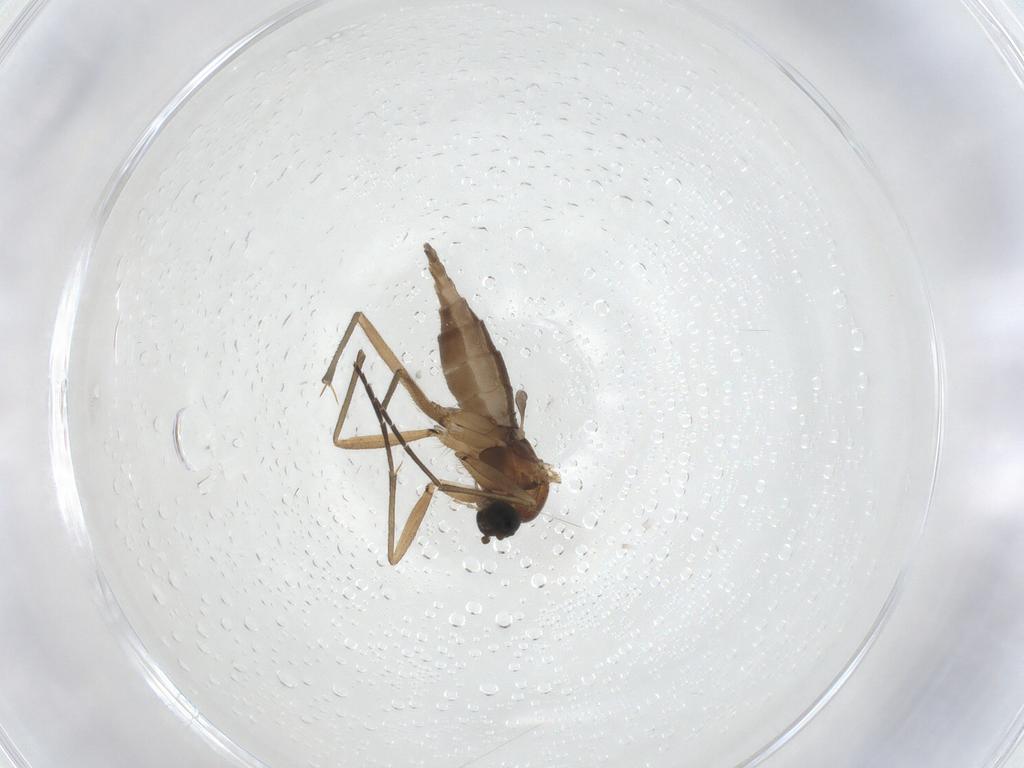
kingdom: Animalia
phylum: Arthropoda
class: Insecta
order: Diptera
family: Sciaridae
